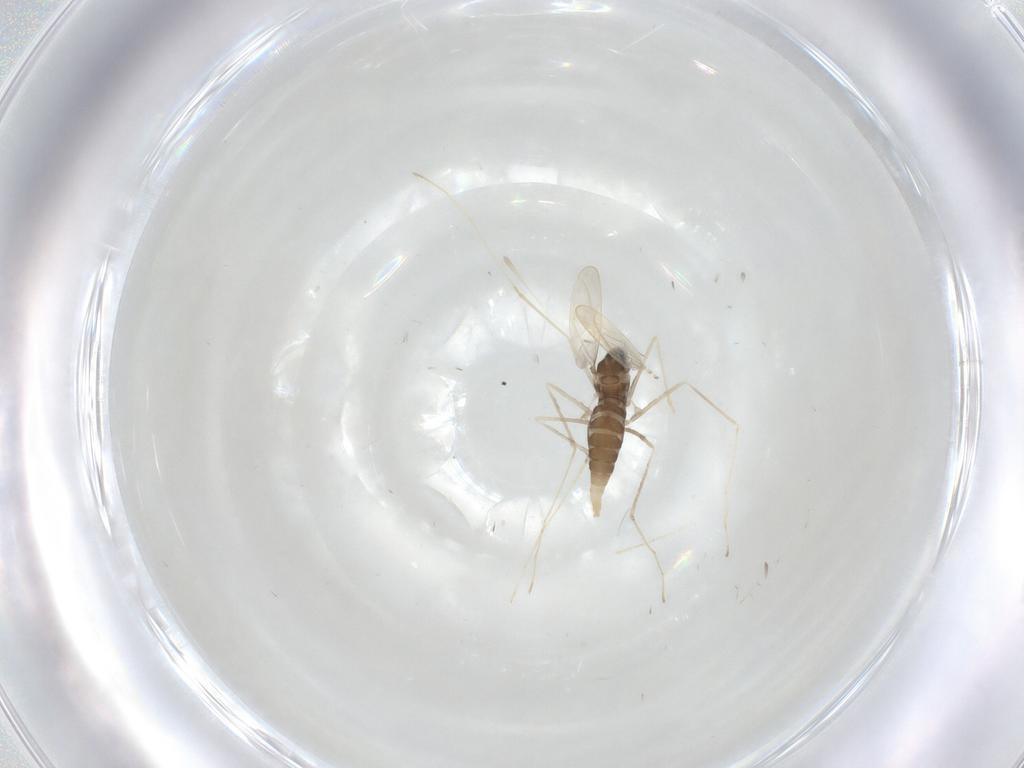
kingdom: Animalia
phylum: Arthropoda
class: Insecta
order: Diptera
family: Cecidomyiidae
